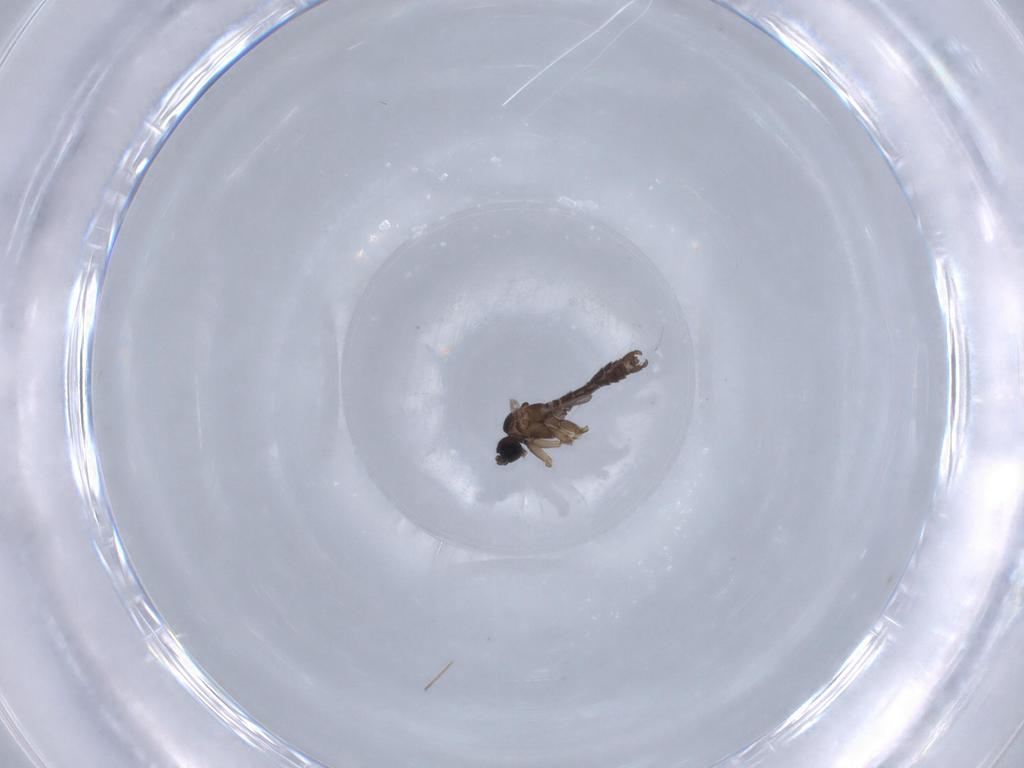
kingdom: Animalia
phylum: Arthropoda
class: Insecta
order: Diptera
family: Sciaridae
